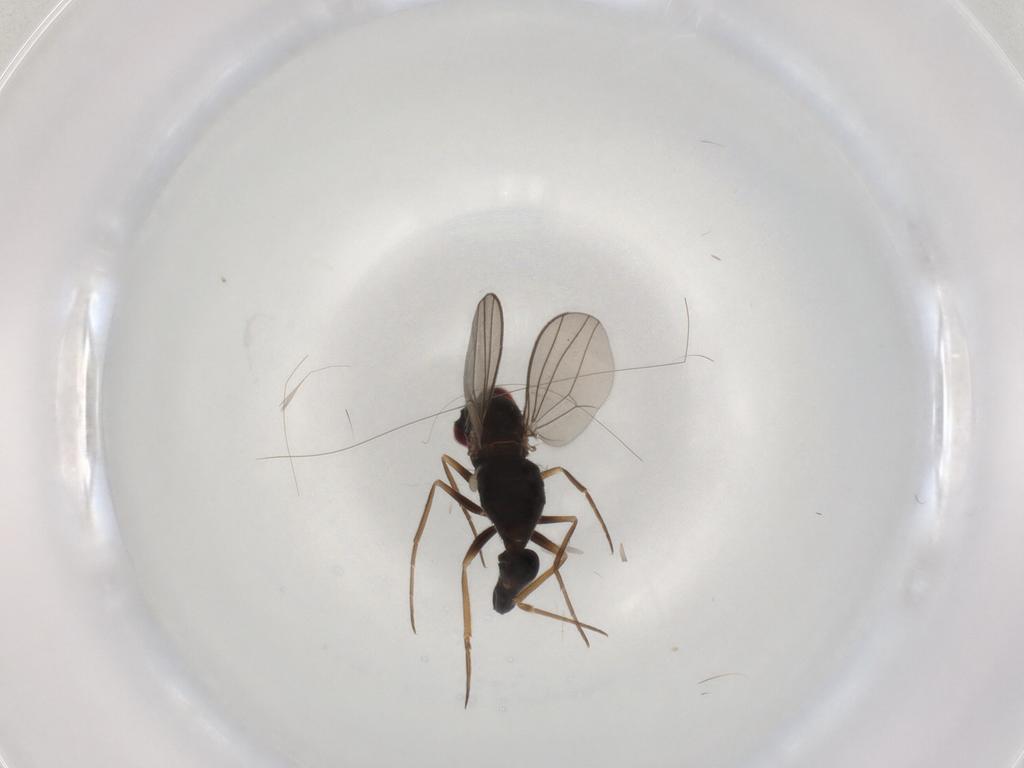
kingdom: Animalia
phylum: Arthropoda
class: Insecta
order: Diptera
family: Dolichopodidae
